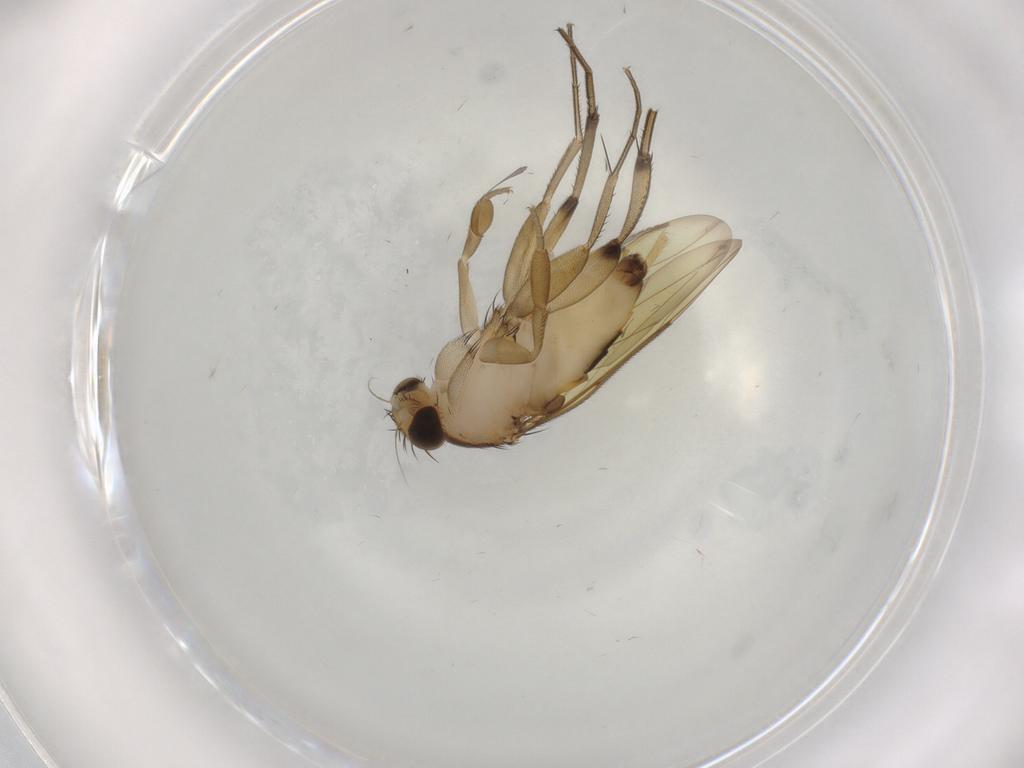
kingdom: Animalia
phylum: Arthropoda
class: Insecta
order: Diptera
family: Phoridae
